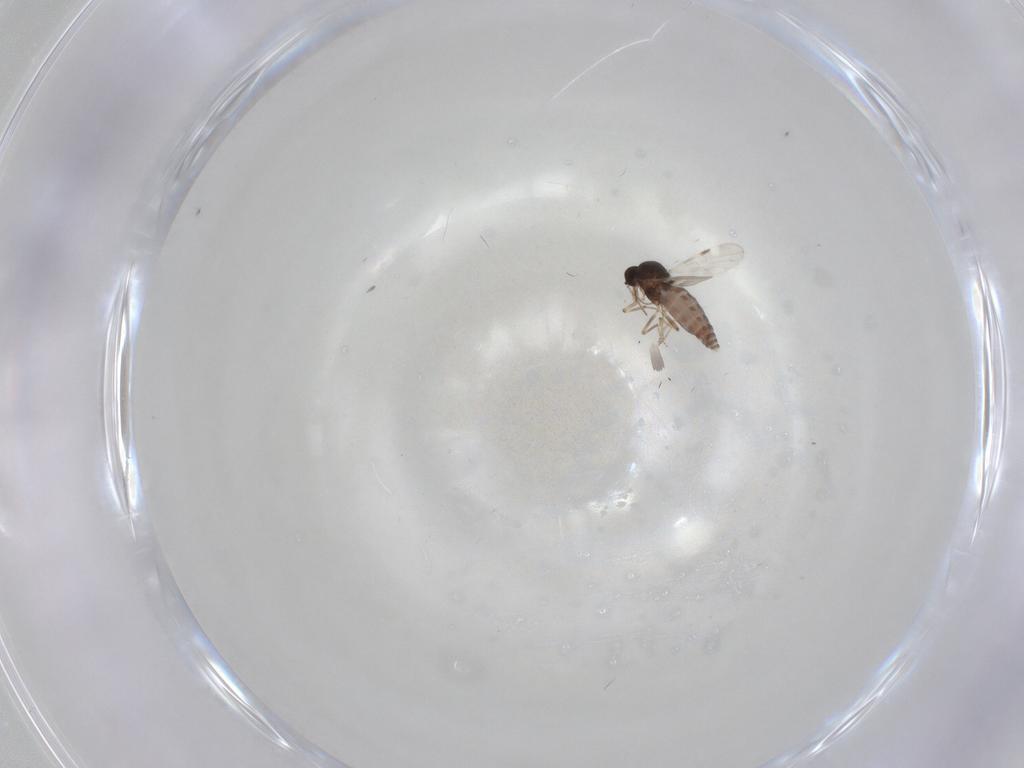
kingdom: Animalia
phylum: Arthropoda
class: Insecta
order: Diptera
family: Chironomidae
